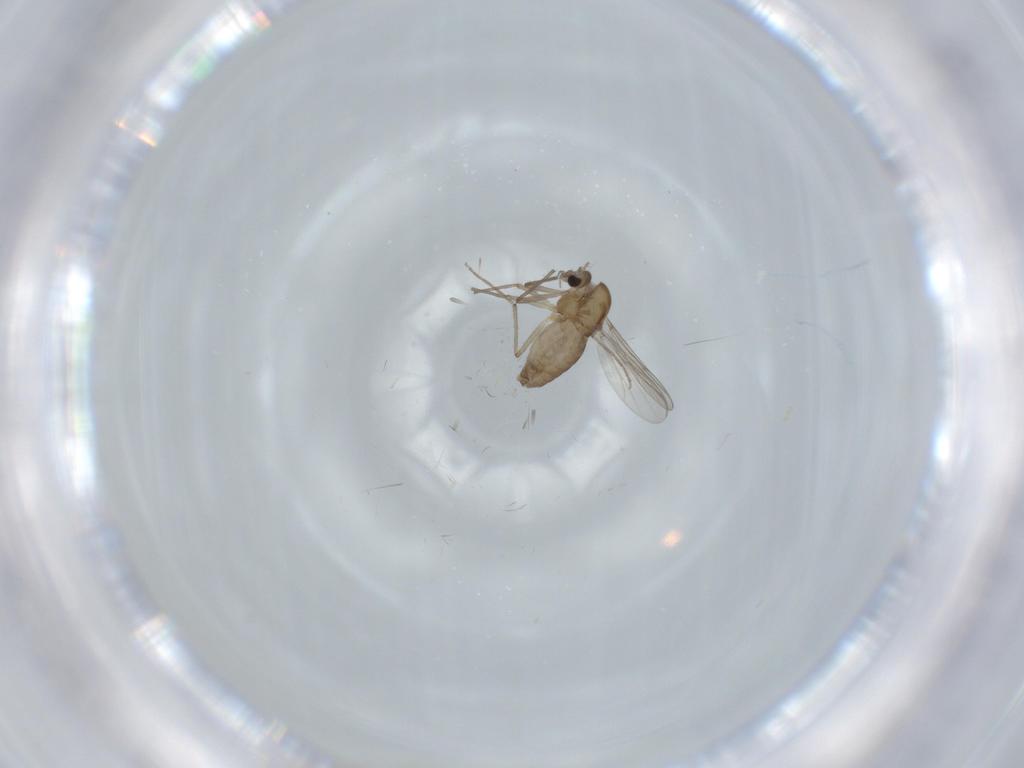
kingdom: Animalia
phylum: Arthropoda
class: Insecta
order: Diptera
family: Chironomidae
